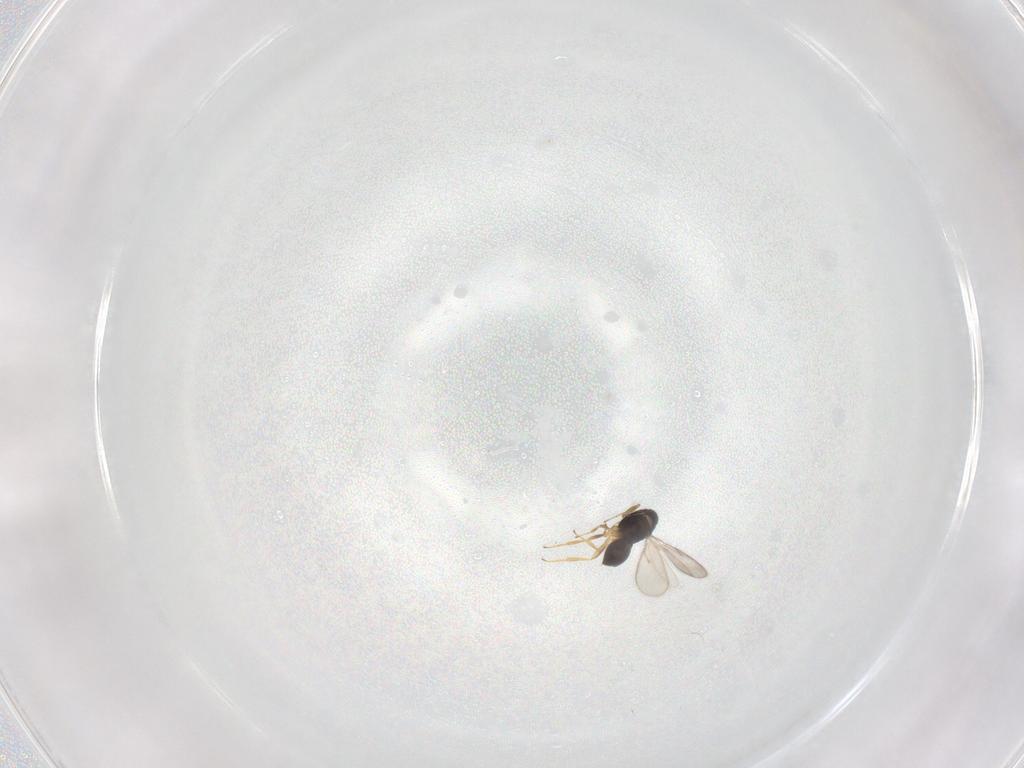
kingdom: Animalia
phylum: Arthropoda
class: Insecta
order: Hymenoptera
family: Scelionidae
